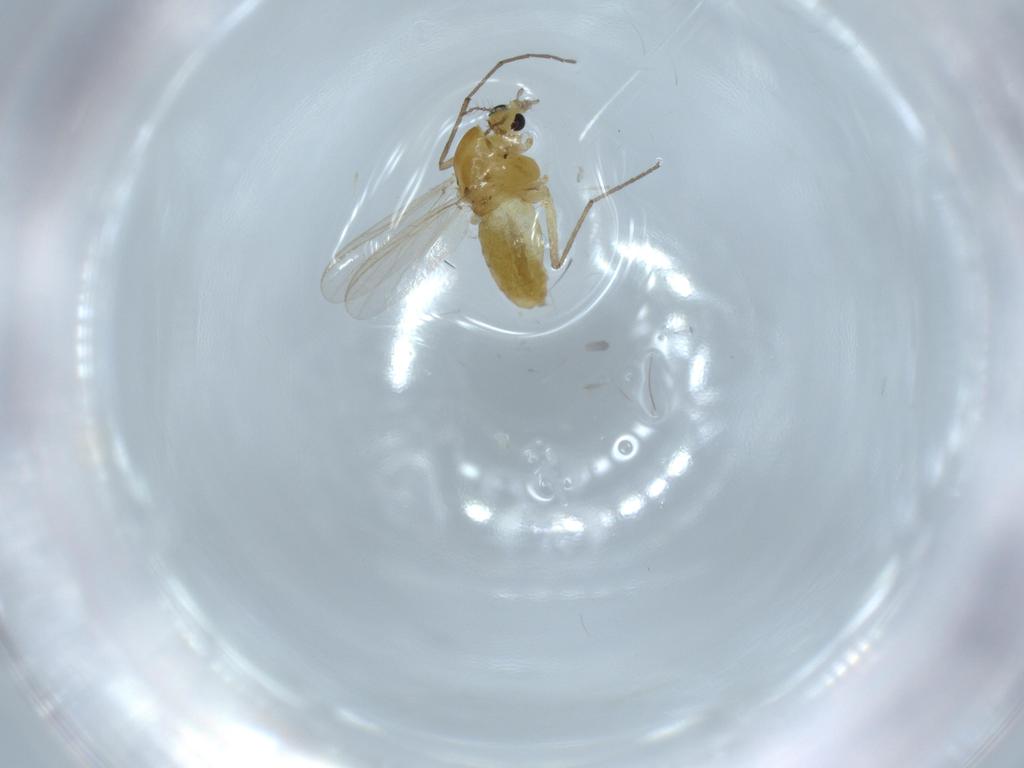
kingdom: Animalia
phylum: Arthropoda
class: Insecta
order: Diptera
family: Chironomidae
